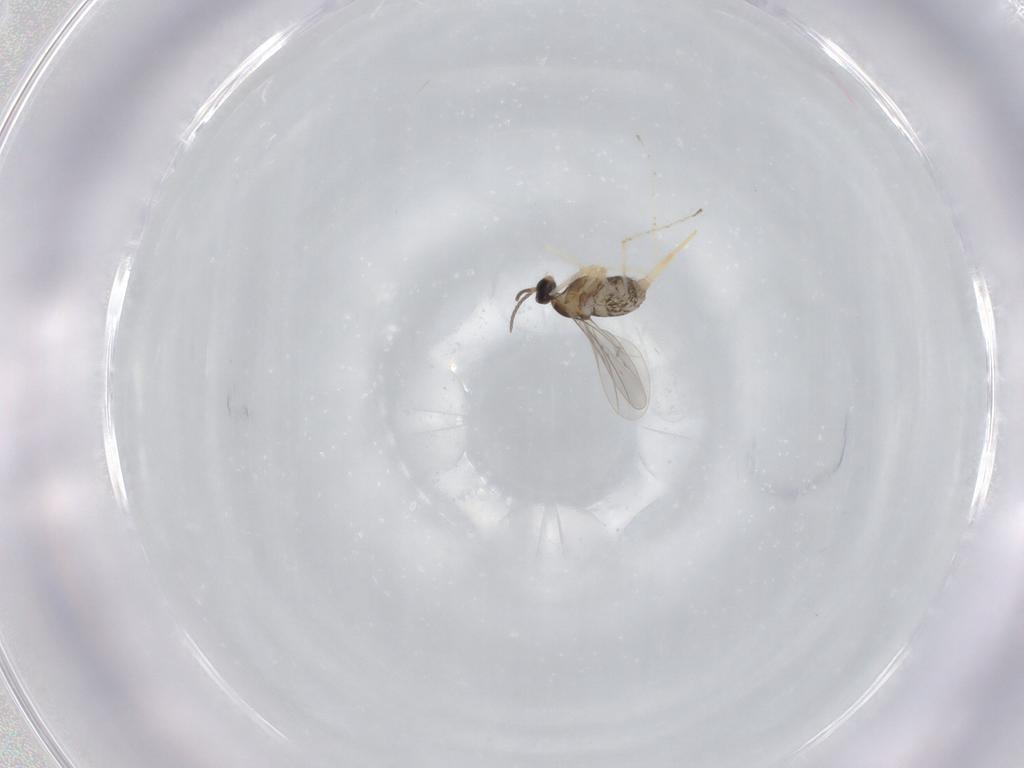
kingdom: Animalia
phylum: Arthropoda
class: Insecta
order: Diptera
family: Cecidomyiidae
